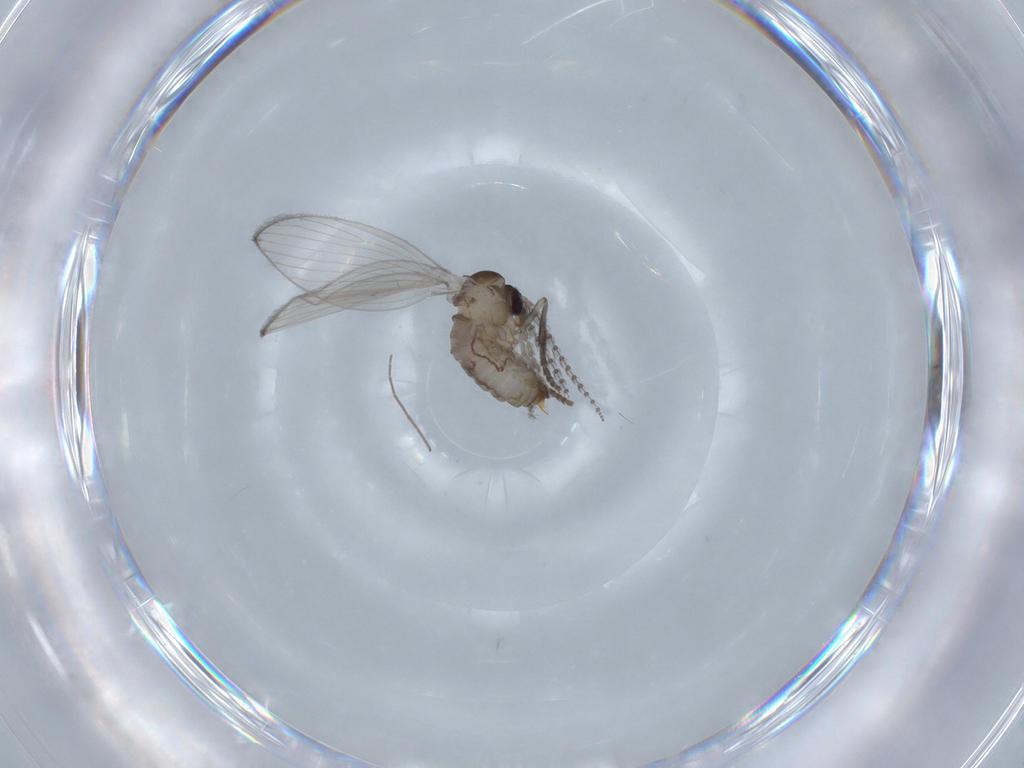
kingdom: Animalia
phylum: Arthropoda
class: Insecta
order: Diptera
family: Psychodidae
